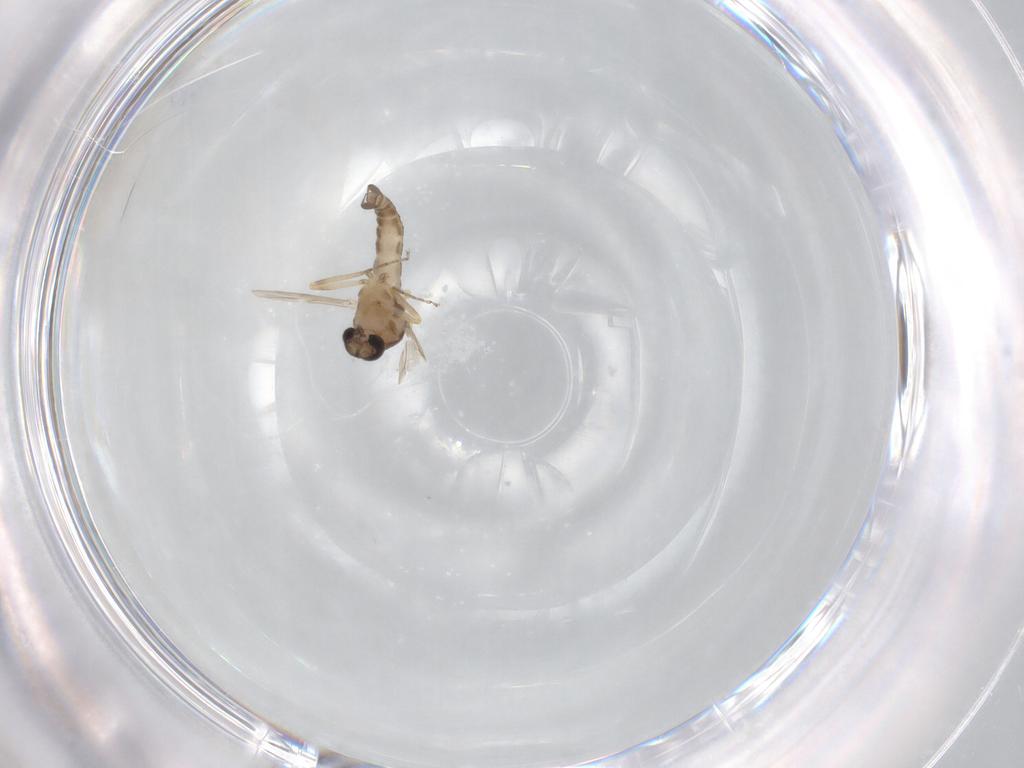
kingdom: Animalia
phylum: Arthropoda
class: Insecta
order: Diptera
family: Ceratopogonidae
